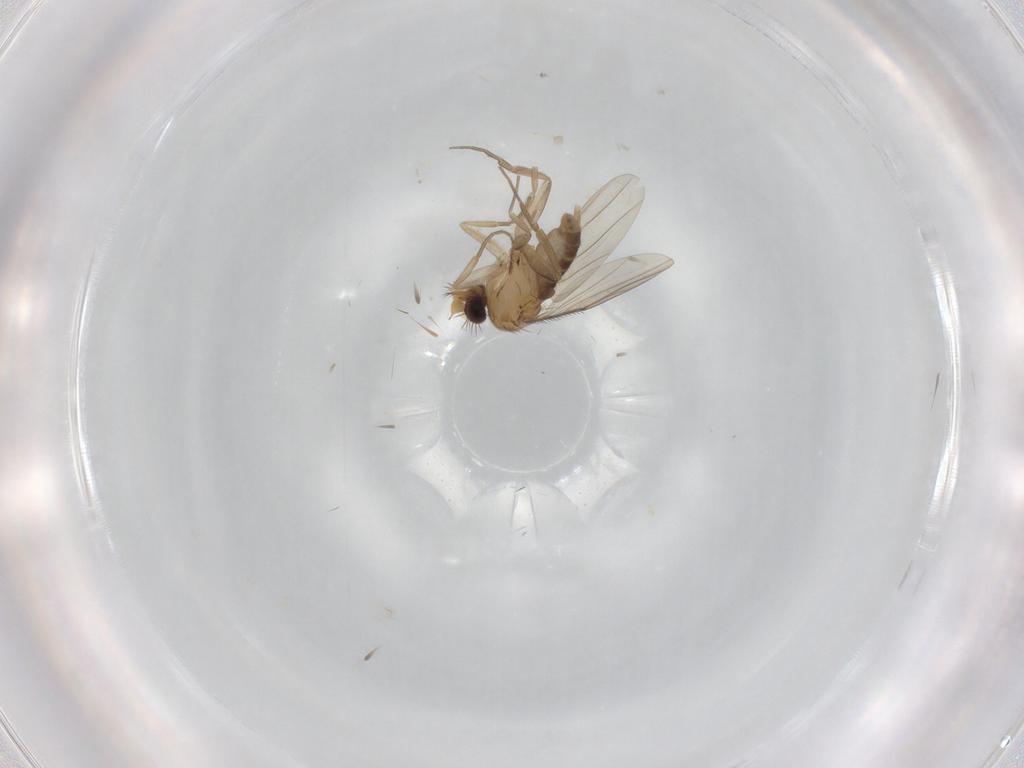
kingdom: Animalia
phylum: Arthropoda
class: Insecta
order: Diptera
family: Phoridae
